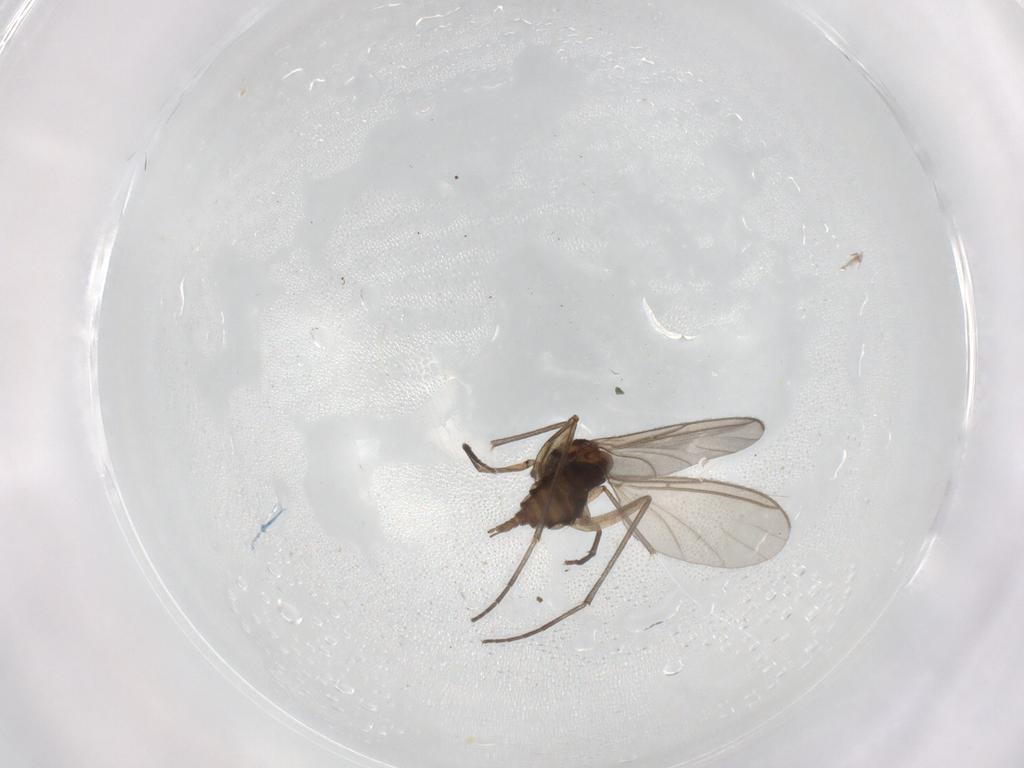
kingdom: Animalia
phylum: Arthropoda
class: Insecta
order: Diptera
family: Sciaridae
